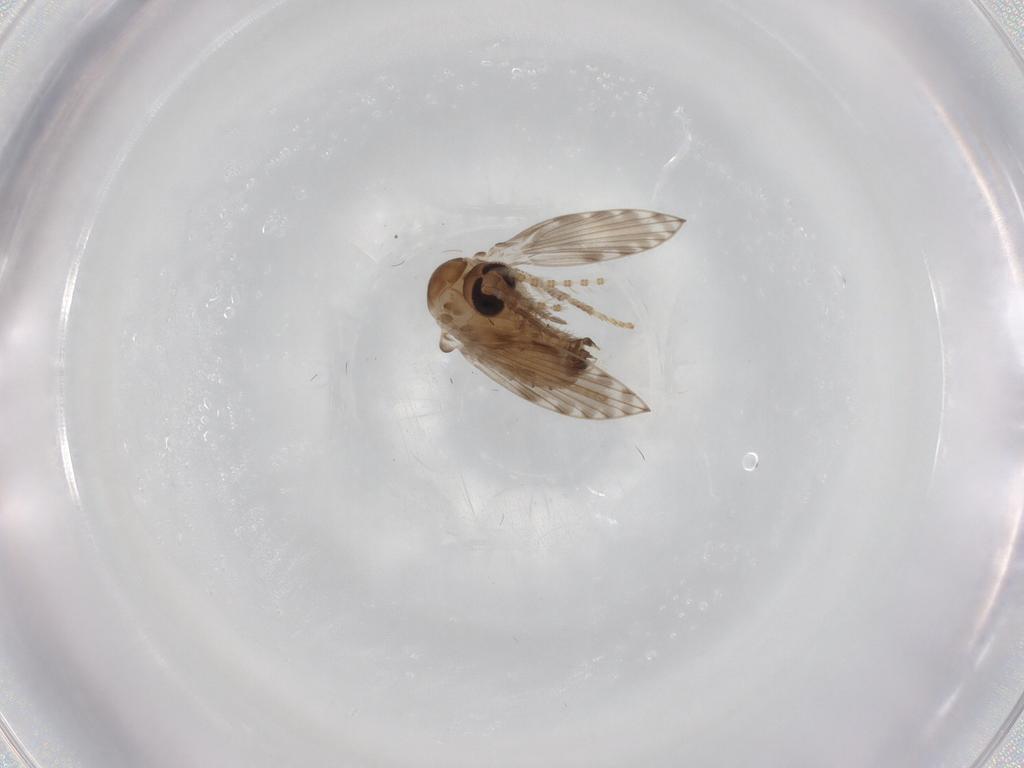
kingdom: Animalia
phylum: Arthropoda
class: Insecta
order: Diptera
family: Psychodidae
